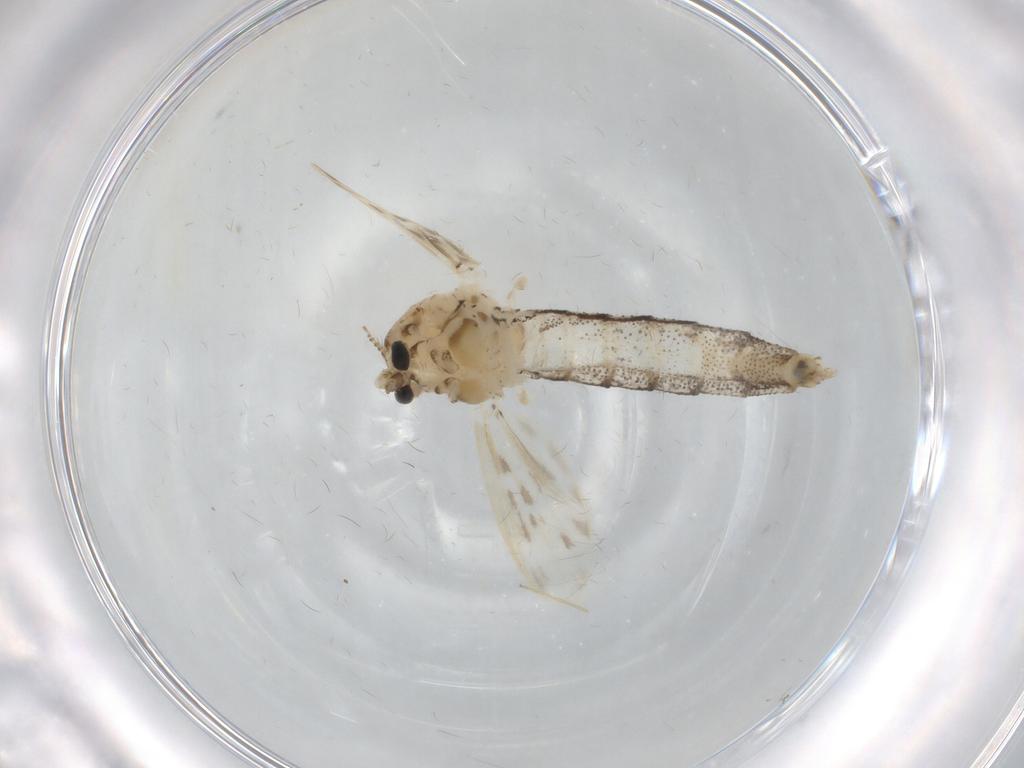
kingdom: Animalia
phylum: Arthropoda
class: Insecta
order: Diptera
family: Chaoboridae
